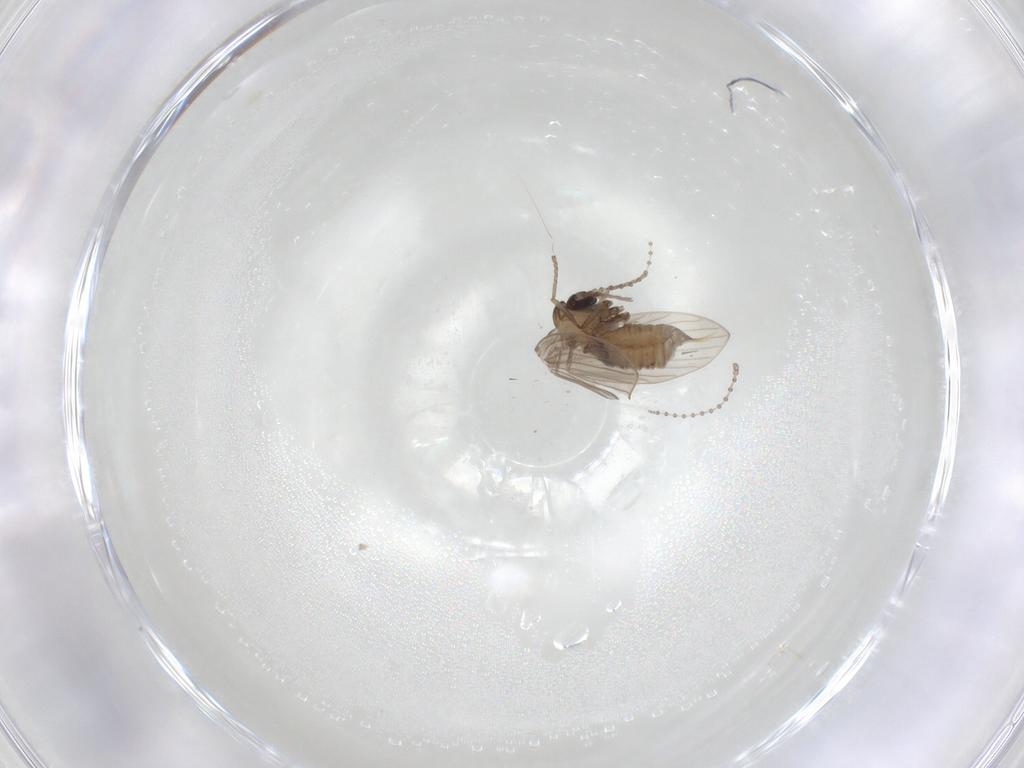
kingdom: Animalia
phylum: Arthropoda
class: Insecta
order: Diptera
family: Psychodidae
